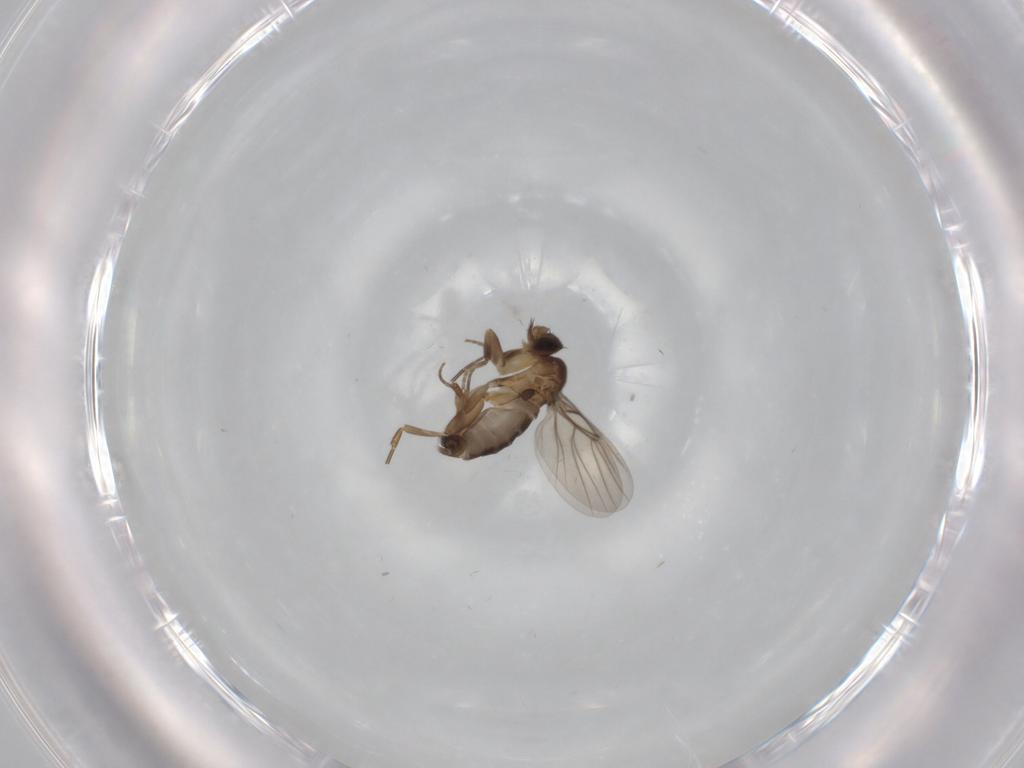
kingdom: Animalia
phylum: Arthropoda
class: Insecta
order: Diptera
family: Phoridae
